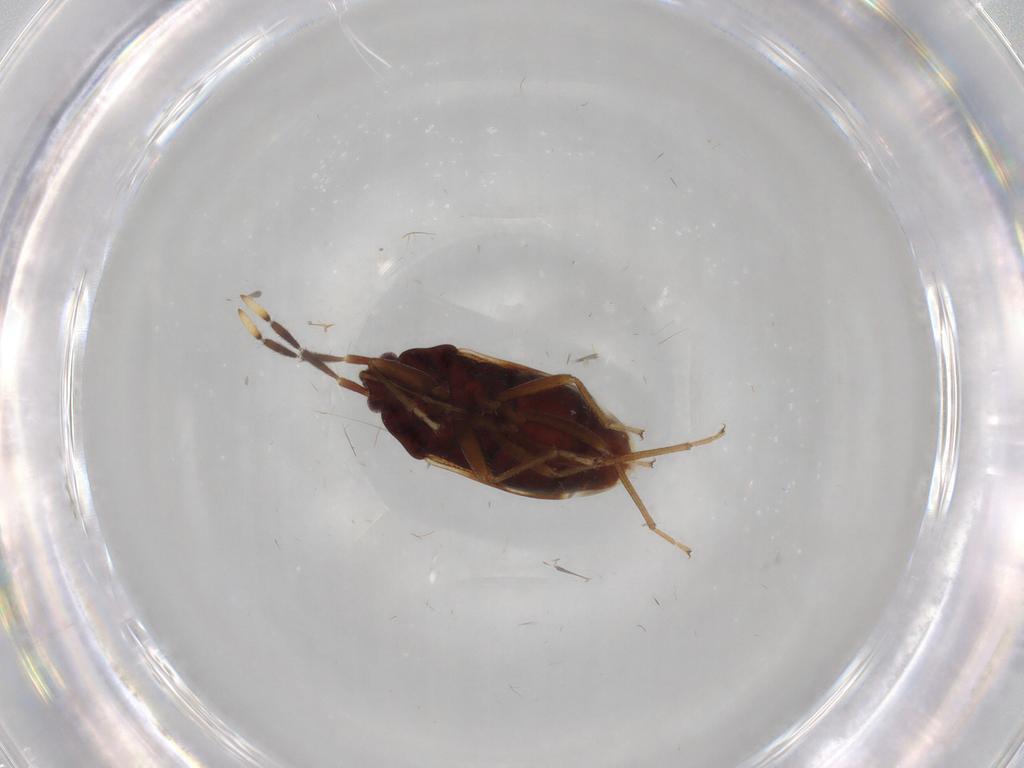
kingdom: Animalia
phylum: Arthropoda
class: Insecta
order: Hemiptera
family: Rhyparochromidae
